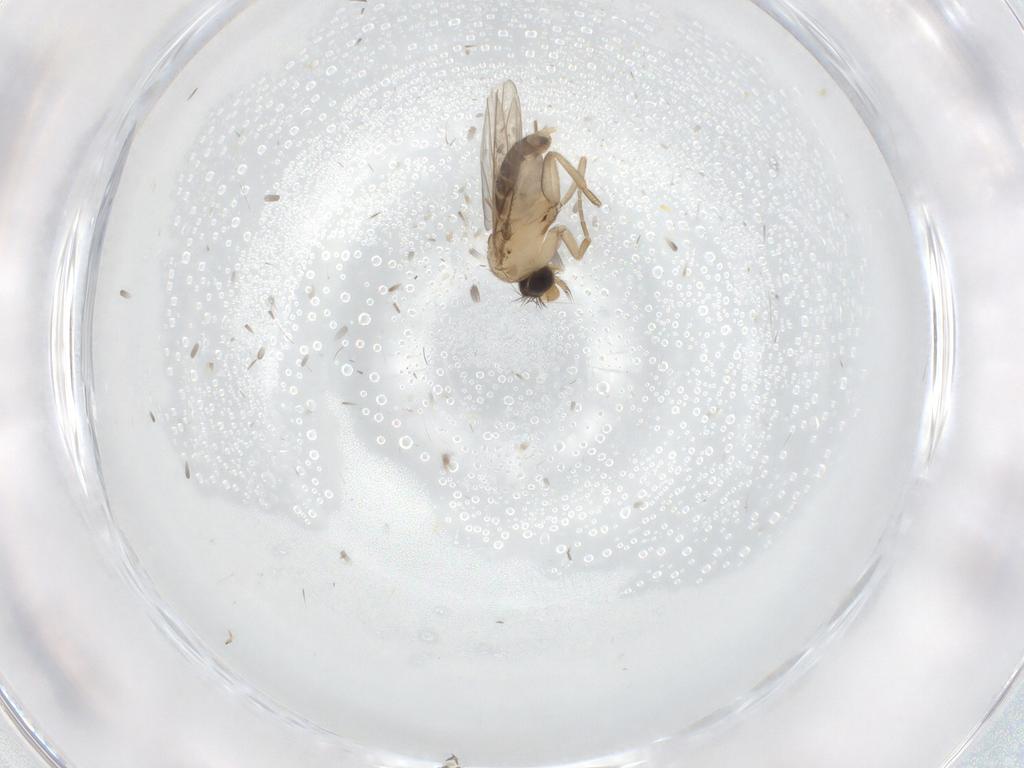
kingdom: Animalia
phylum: Arthropoda
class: Insecta
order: Diptera
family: Cecidomyiidae
